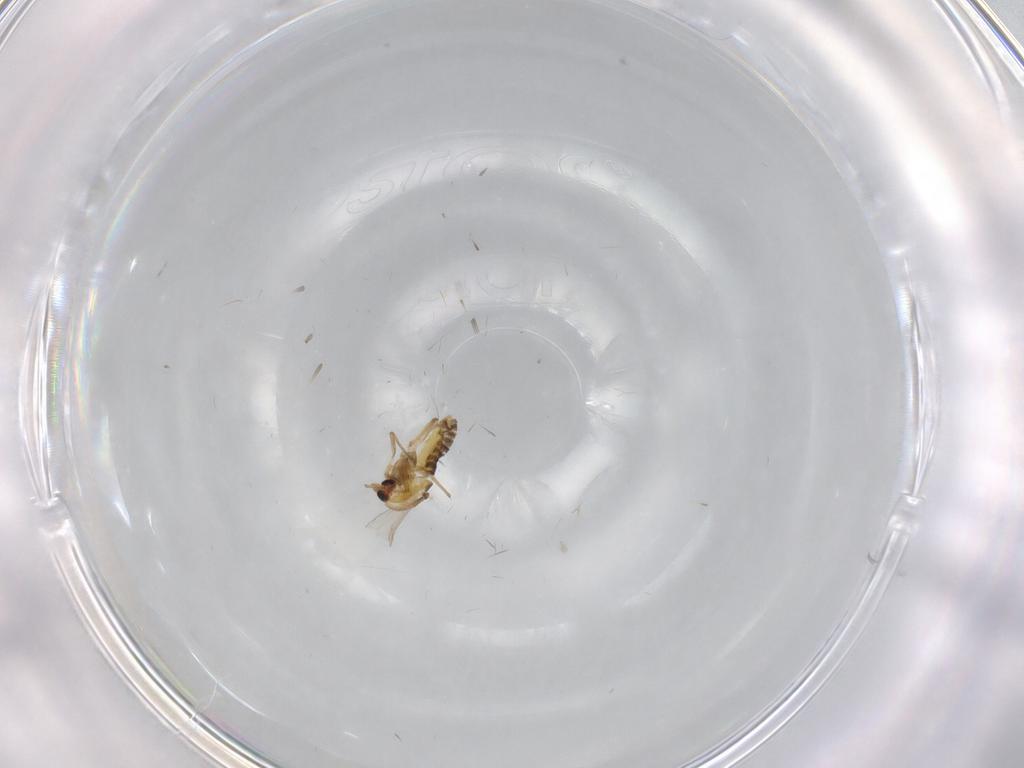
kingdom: Animalia
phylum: Arthropoda
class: Insecta
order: Diptera
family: Chironomidae
